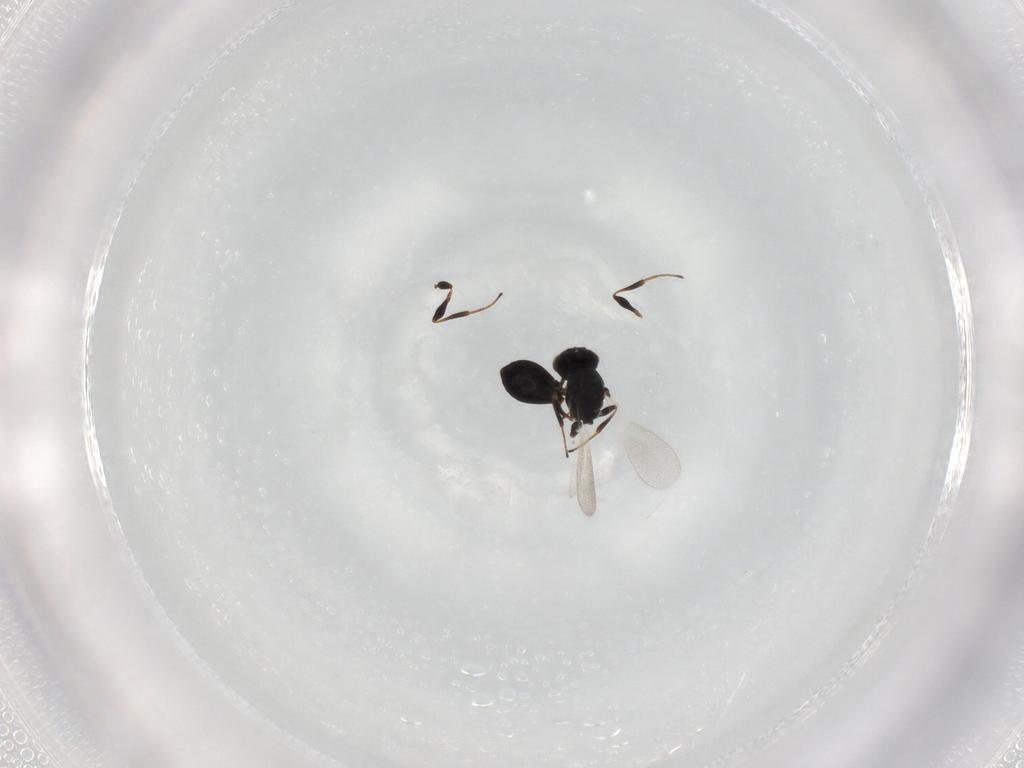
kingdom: Animalia
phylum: Arthropoda
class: Insecta
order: Hymenoptera
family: Platygastridae
